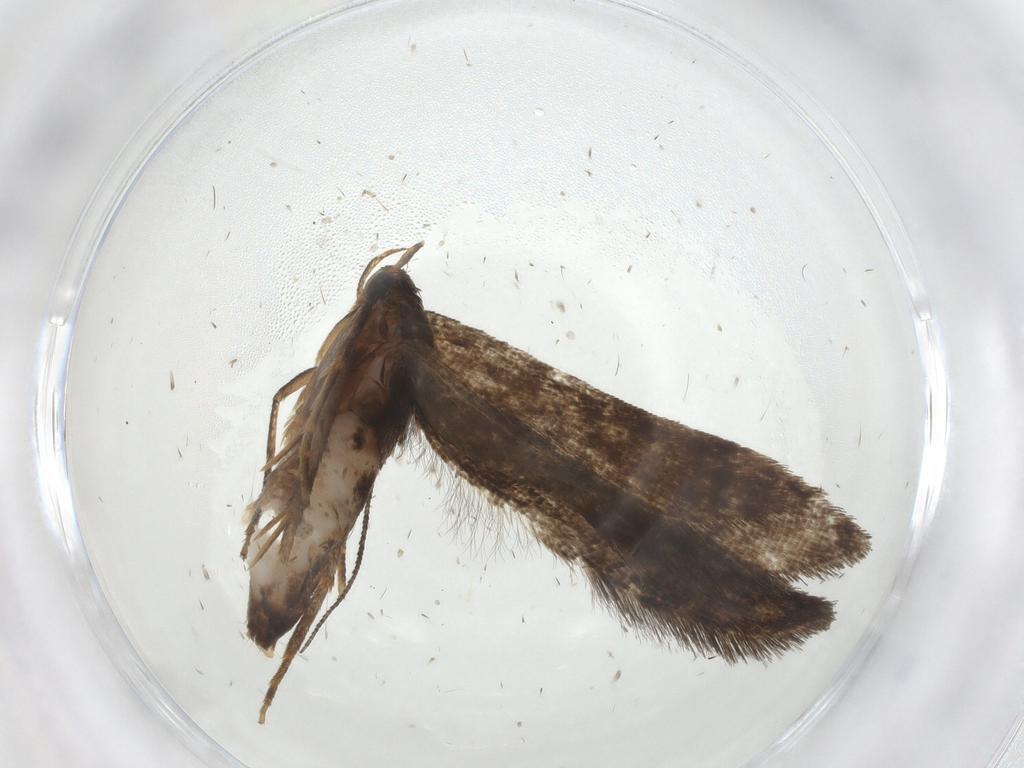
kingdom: Animalia
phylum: Arthropoda
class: Insecta
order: Lepidoptera
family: Noctuidae
